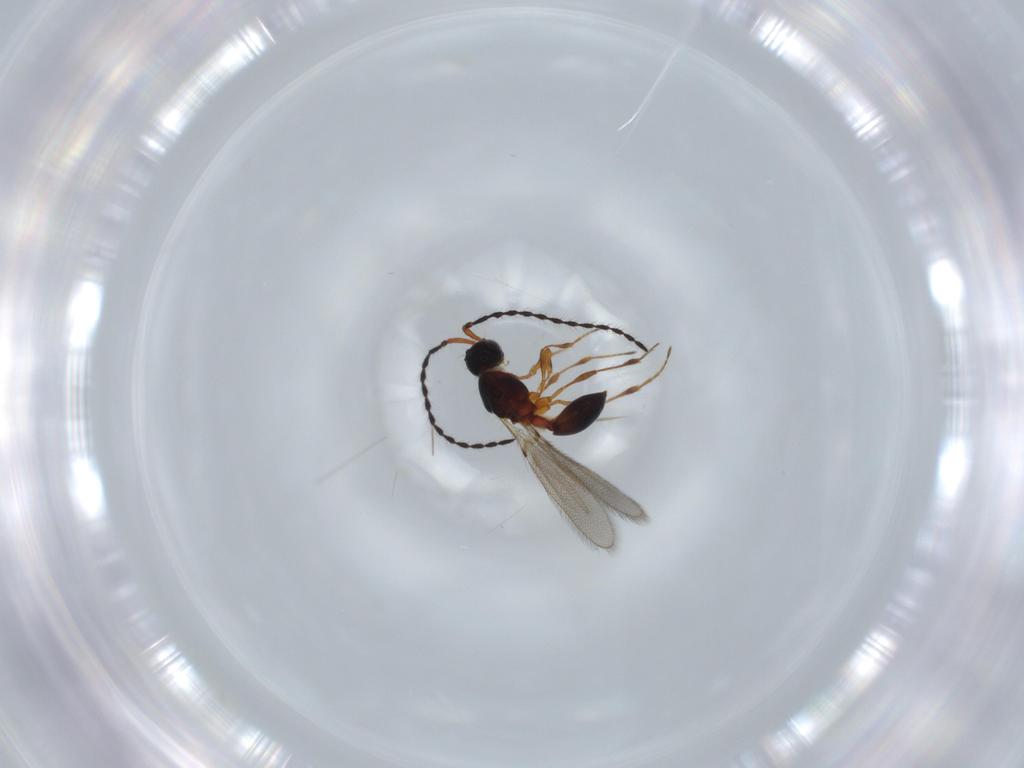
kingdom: Animalia
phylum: Arthropoda
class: Insecta
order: Hymenoptera
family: Diapriidae
